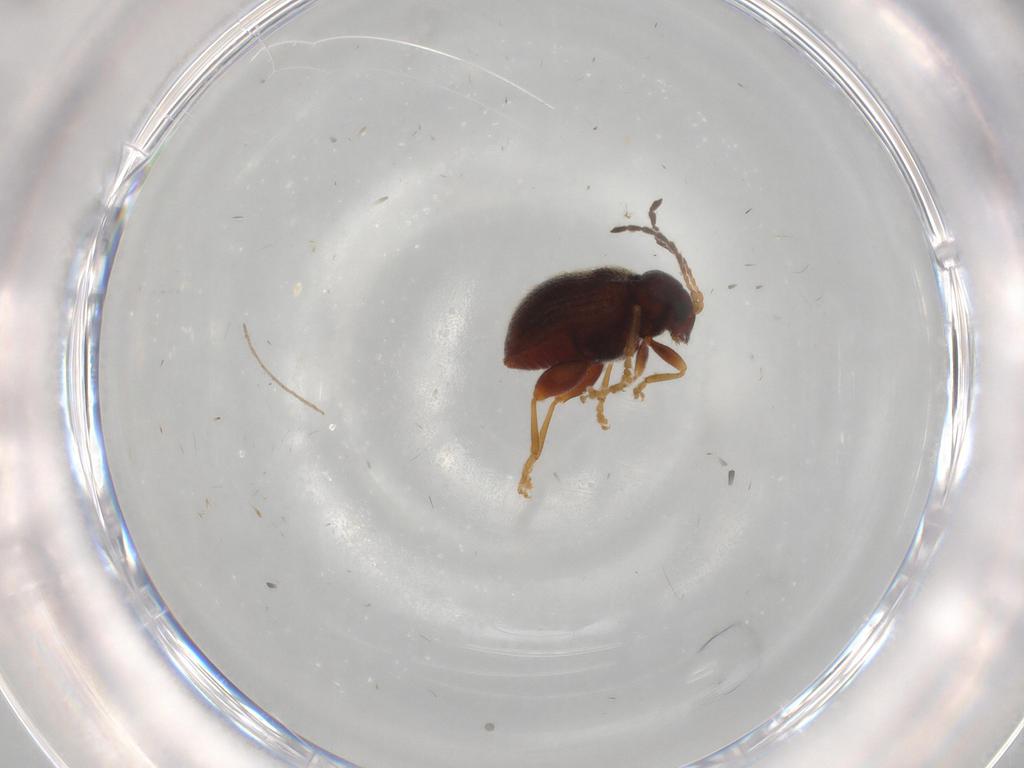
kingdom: Animalia
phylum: Arthropoda
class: Insecta
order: Coleoptera
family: Chrysomelidae
